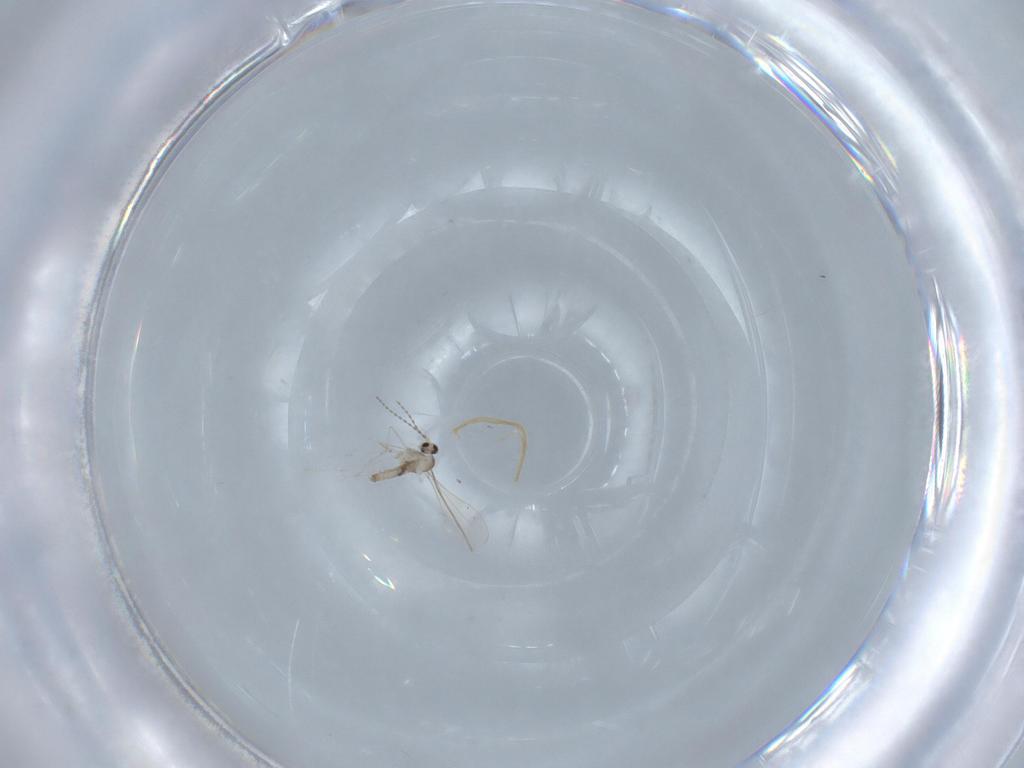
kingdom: Animalia
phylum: Arthropoda
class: Insecta
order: Diptera
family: Cecidomyiidae
